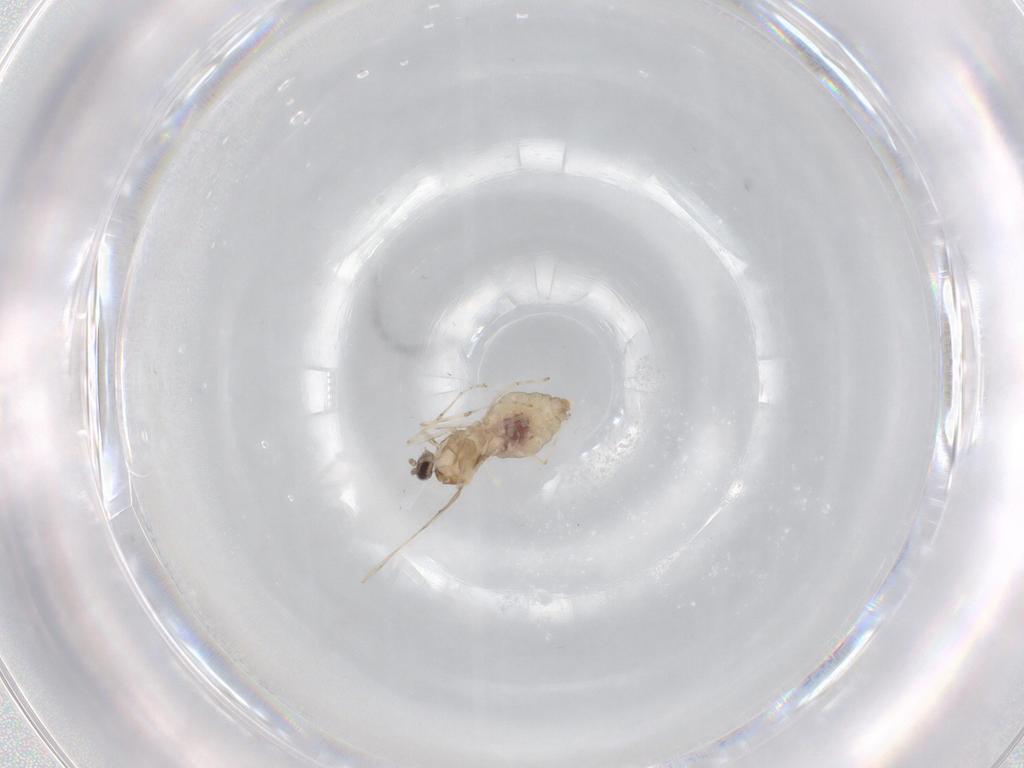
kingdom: Animalia
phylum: Arthropoda
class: Insecta
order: Diptera
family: Cecidomyiidae
